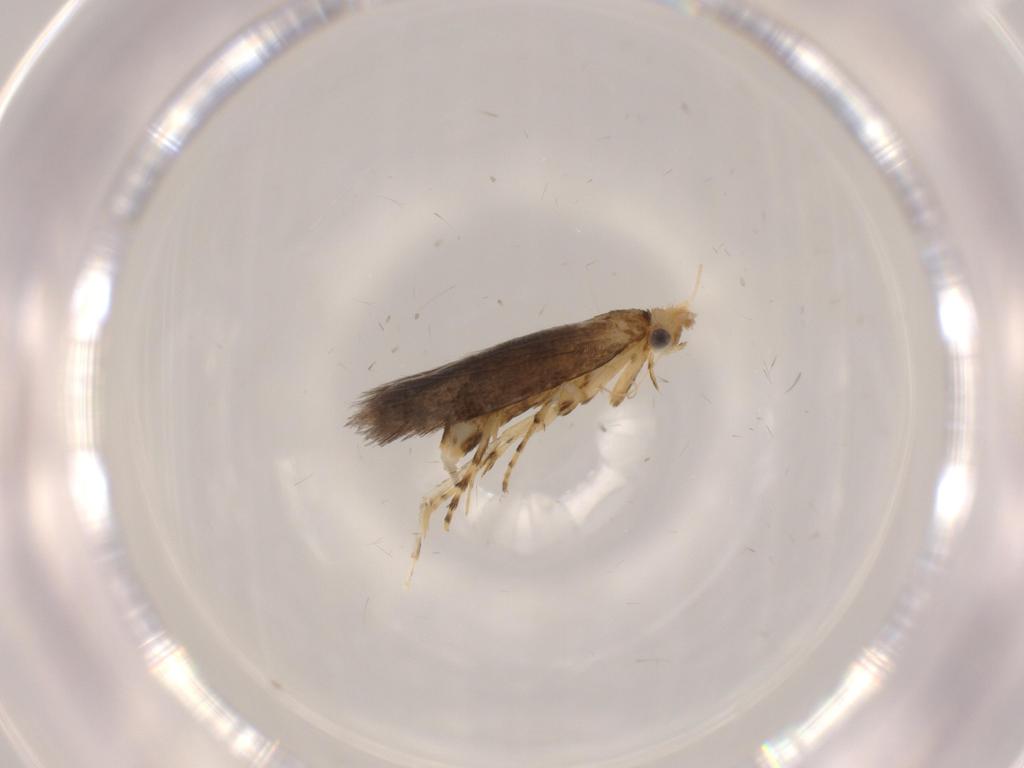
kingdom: Animalia
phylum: Arthropoda
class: Insecta
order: Lepidoptera
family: Argyresthiidae
